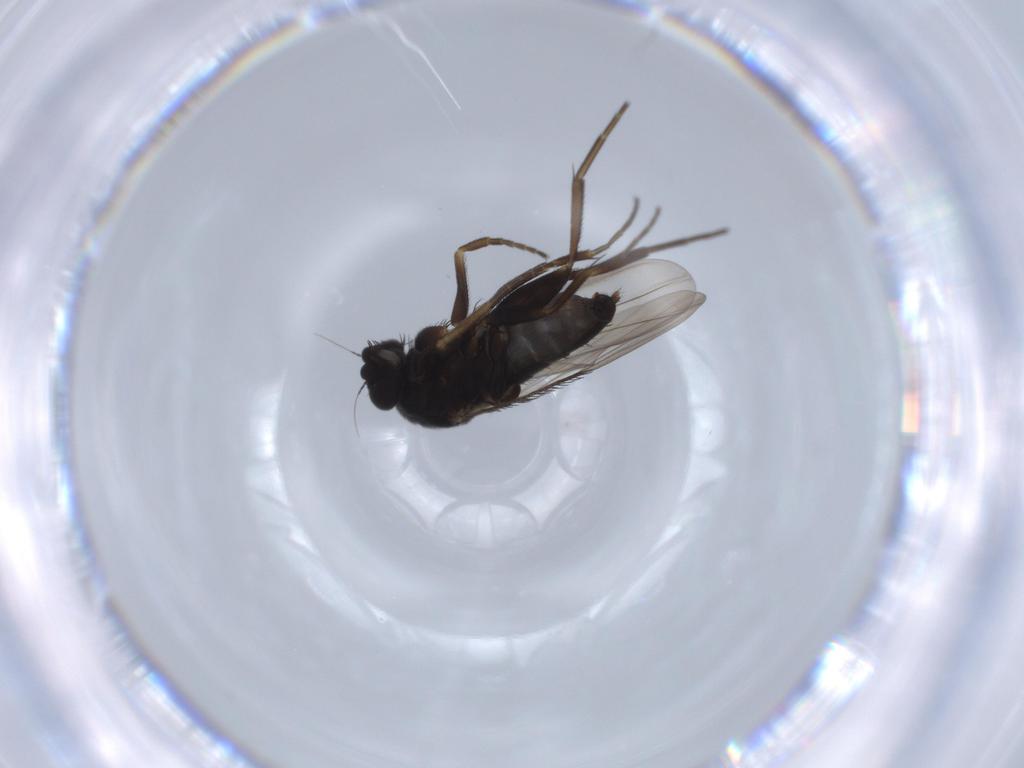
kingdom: Animalia
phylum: Arthropoda
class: Insecta
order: Diptera
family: Phoridae
